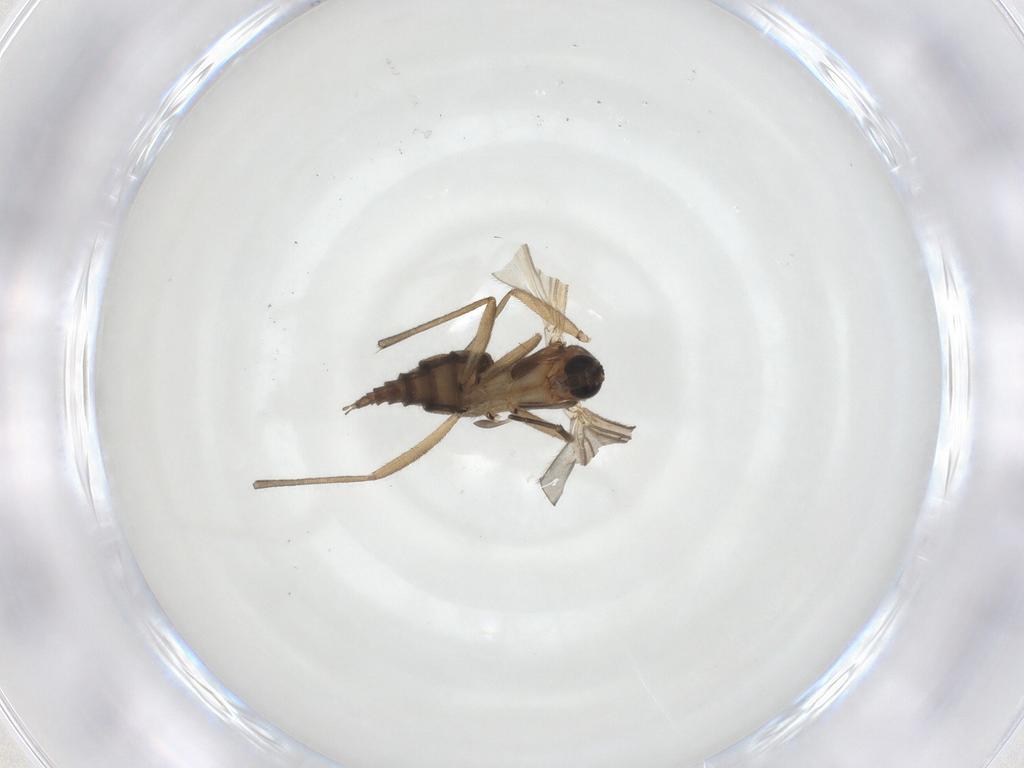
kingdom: Animalia
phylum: Arthropoda
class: Insecta
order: Diptera
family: Sciaridae
